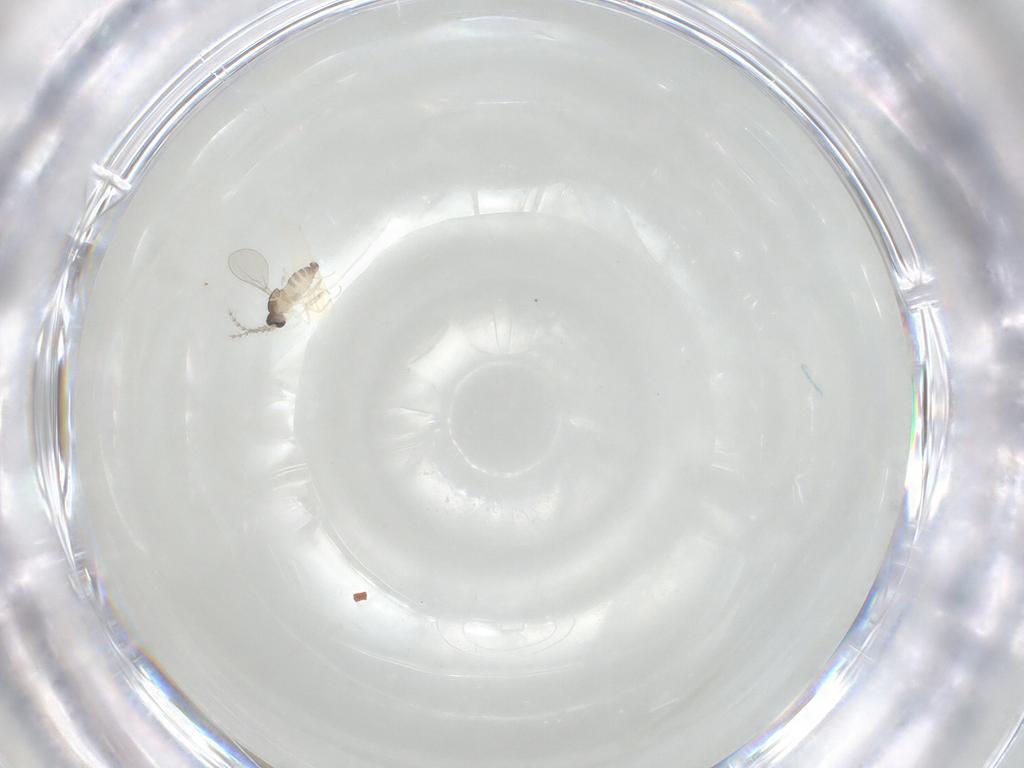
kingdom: Animalia
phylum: Arthropoda
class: Insecta
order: Diptera
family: Cecidomyiidae
